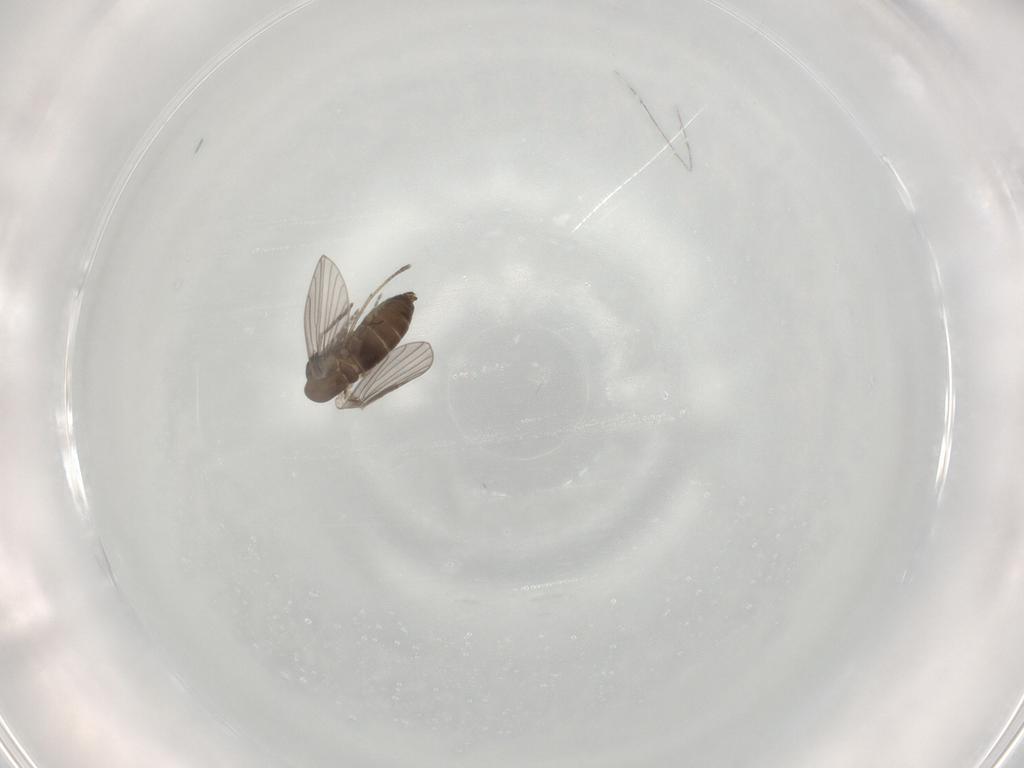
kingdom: Animalia
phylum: Arthropoda
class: Insecta
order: Diptera
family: Phoridae
